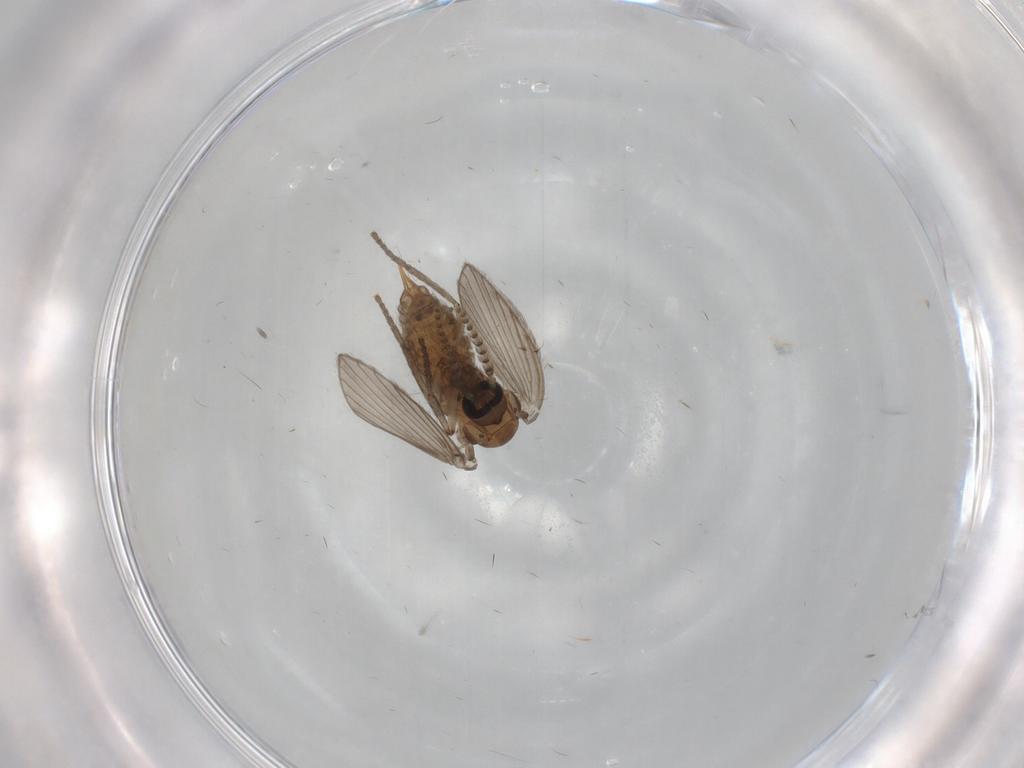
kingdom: Animalia
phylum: Arthropoda
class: Insecta
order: Diptera
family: Psychodidae
